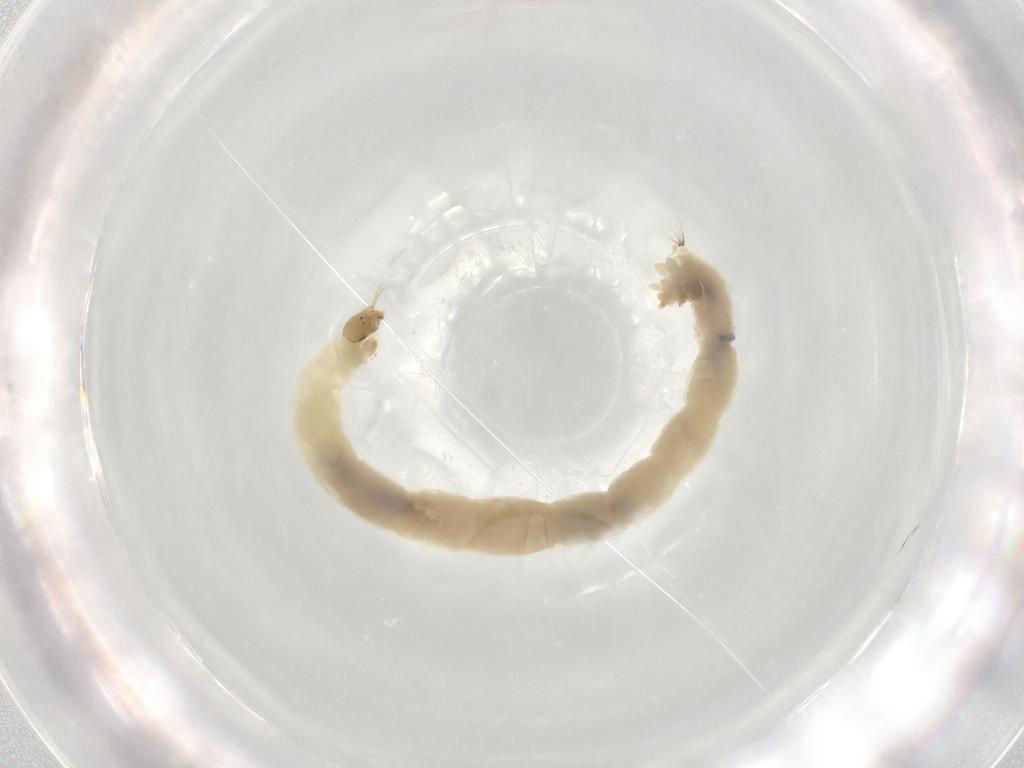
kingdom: Animalia
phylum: Arthropoda
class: Insecta
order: Diptera
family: Chironomidae
